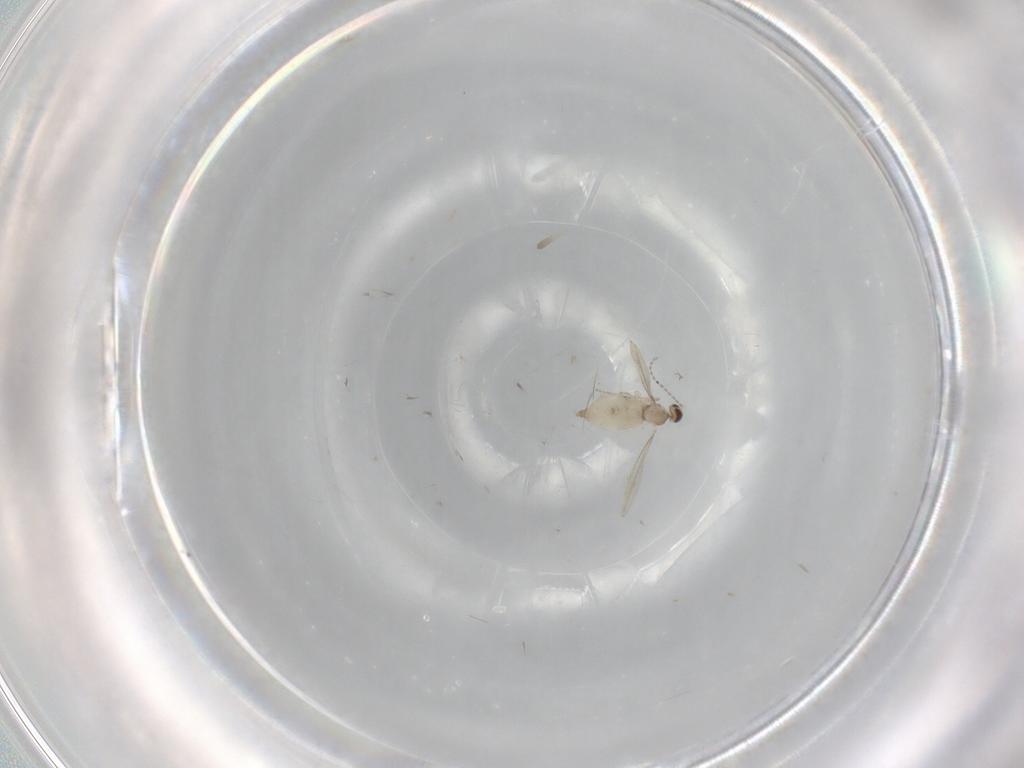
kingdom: Animalia
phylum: Arthropoda
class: Insecta
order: Diptera
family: Cecidomyiidae
